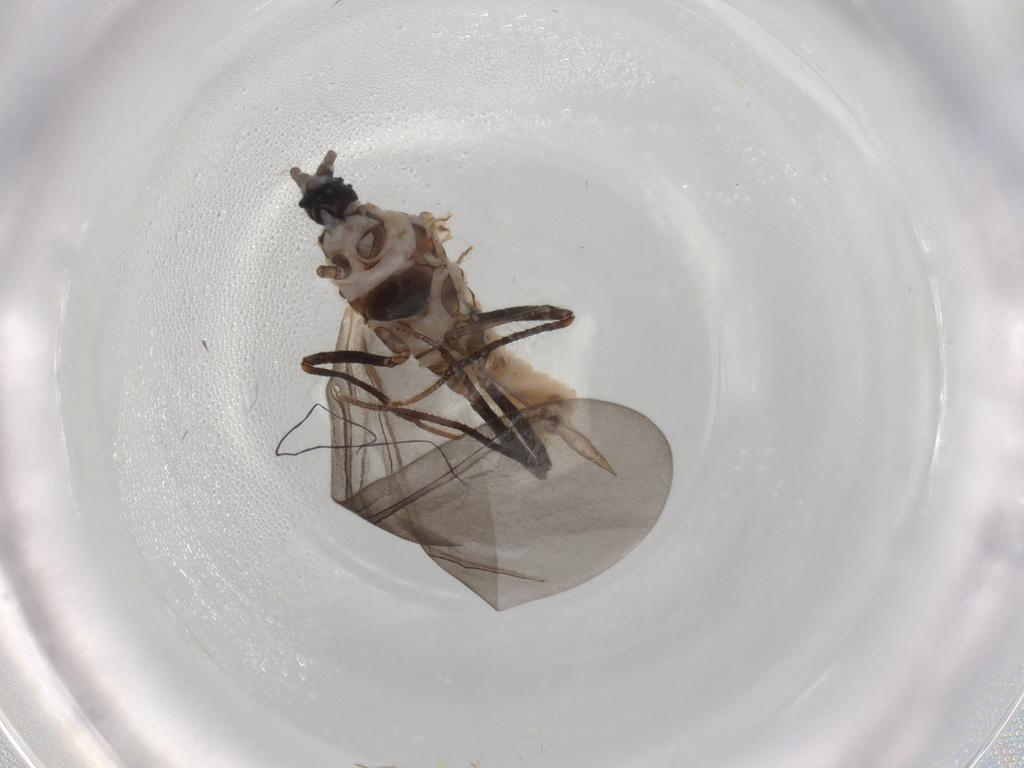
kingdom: Animalia
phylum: Arthropoda
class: Insecta
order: Hemiptera
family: Putoidae
